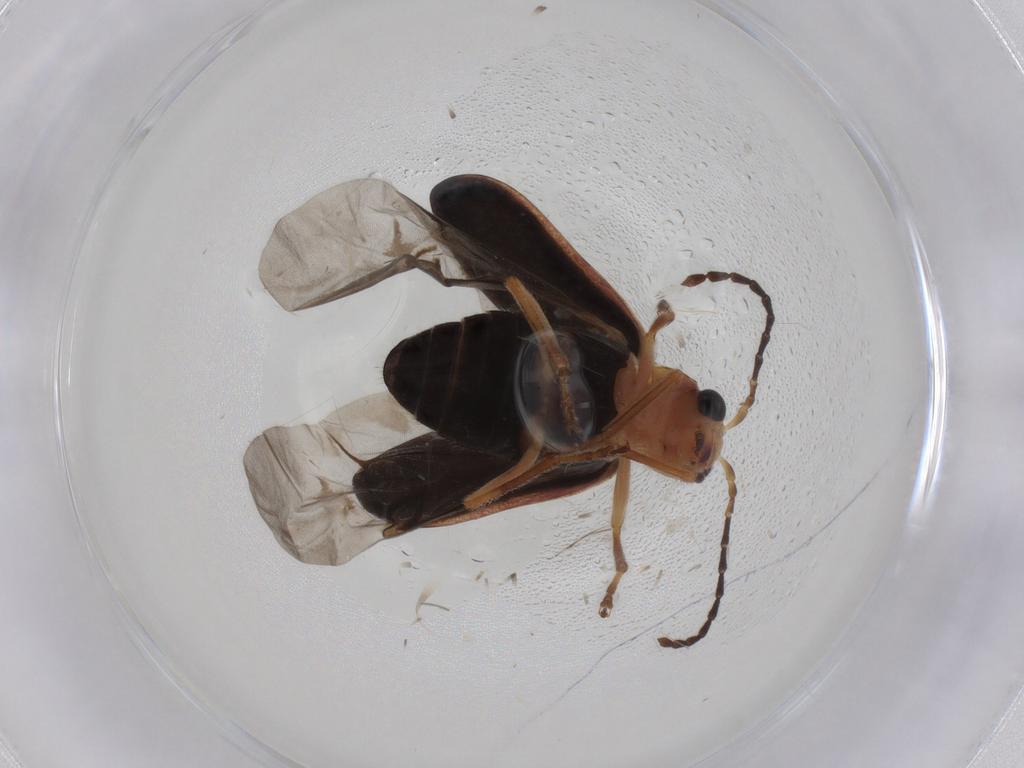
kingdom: Animalia
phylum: Arthropoda
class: Insecta
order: Coleoptera
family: Chrysomelidae
